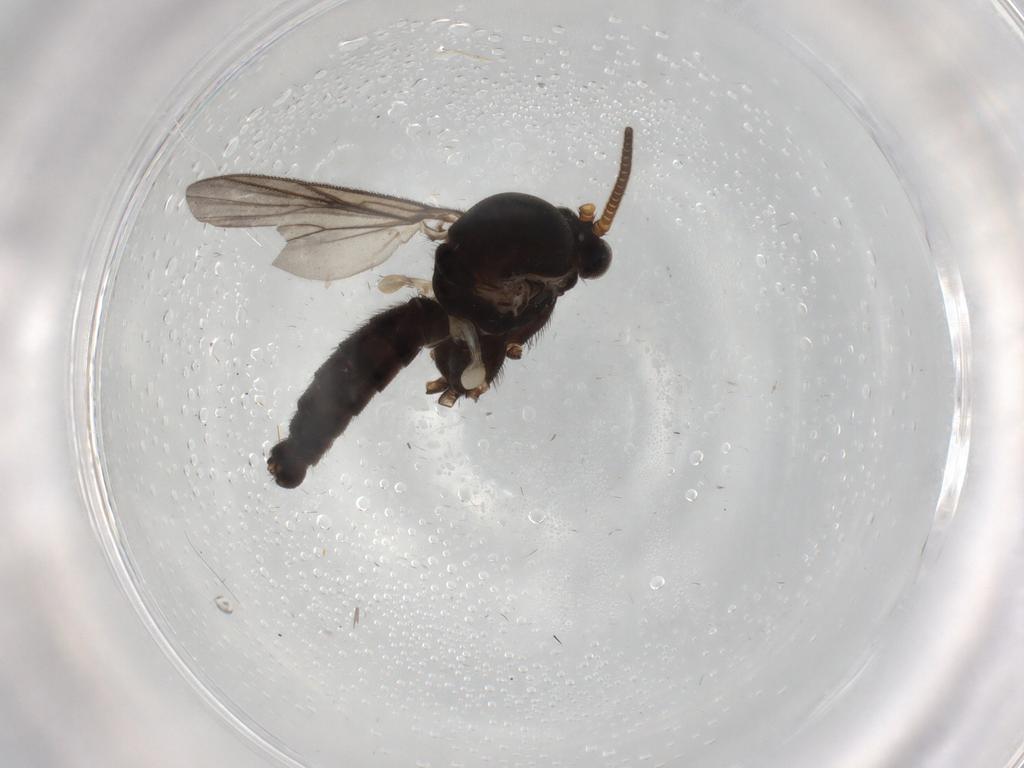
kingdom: Animalia
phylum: Arthropoda
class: Insecta
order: Diptera
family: Mycetophilidae
